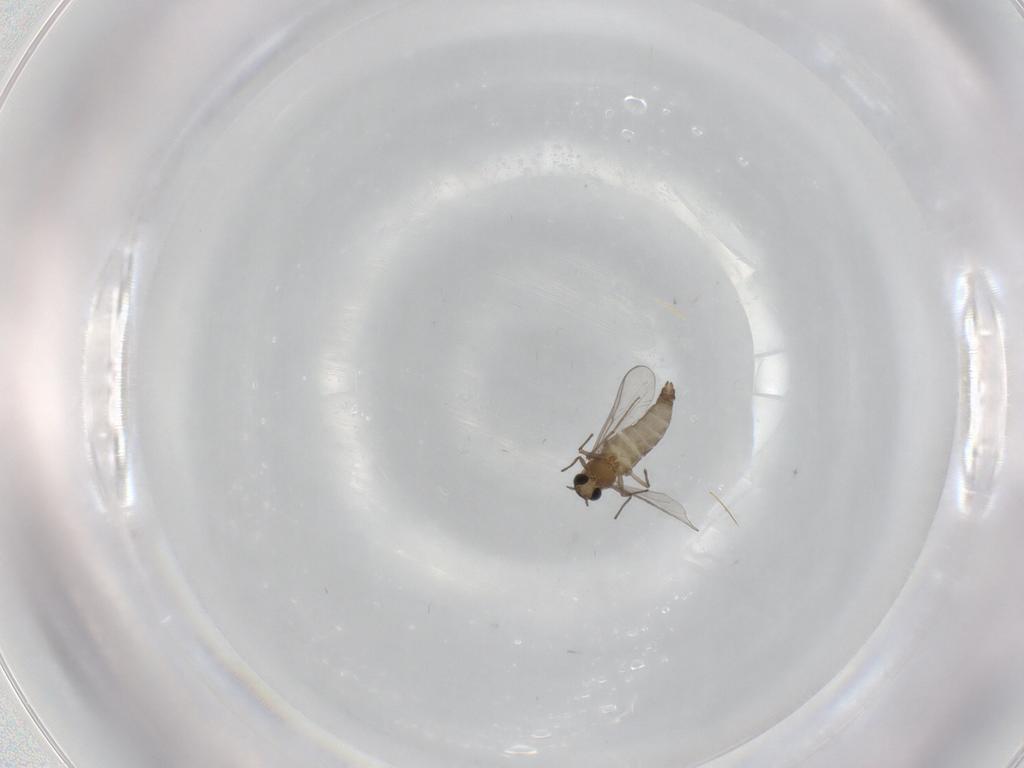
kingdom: Animalia
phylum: Arthropoda
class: Insecta
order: Diptera
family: Chironomidae
